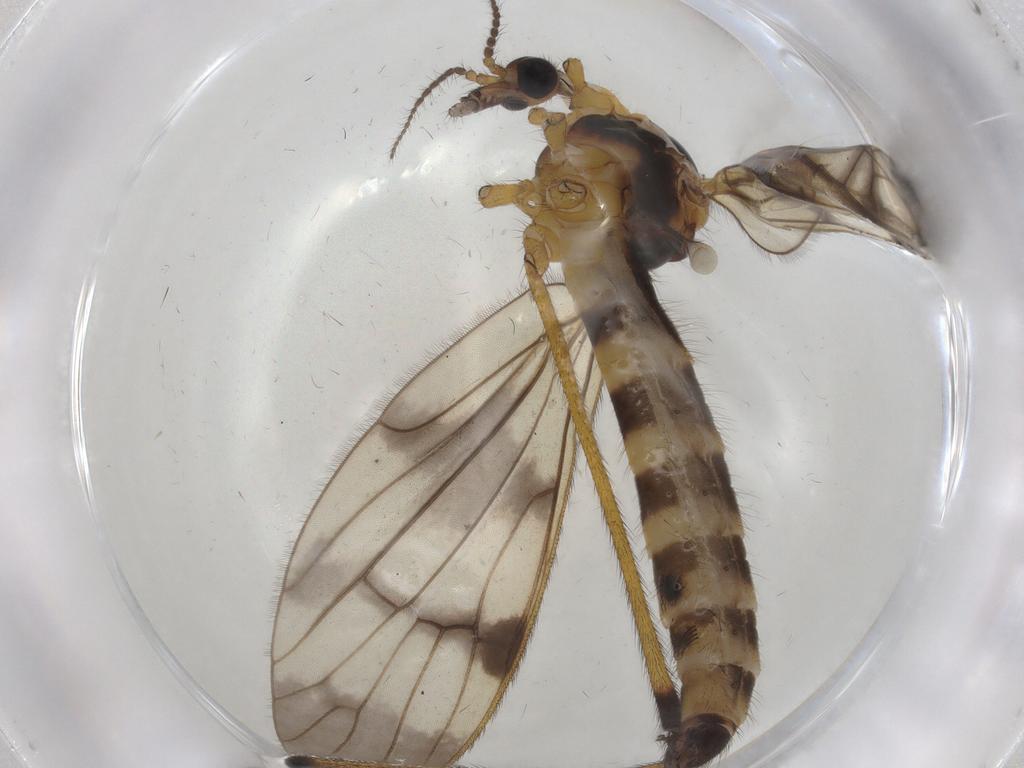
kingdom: Animalia
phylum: Arthropoda
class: Insecta
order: Diptera
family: Limoniidae
